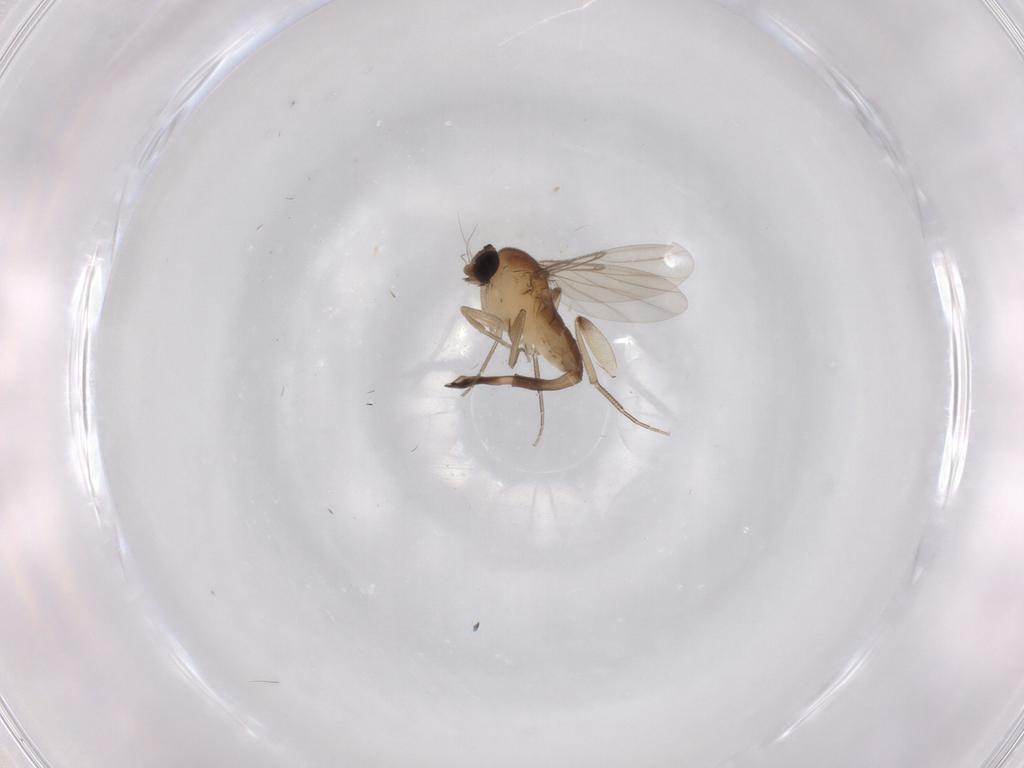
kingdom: Animalia
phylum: Arthropoda
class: Insecta
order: Diptera
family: Phoridae
